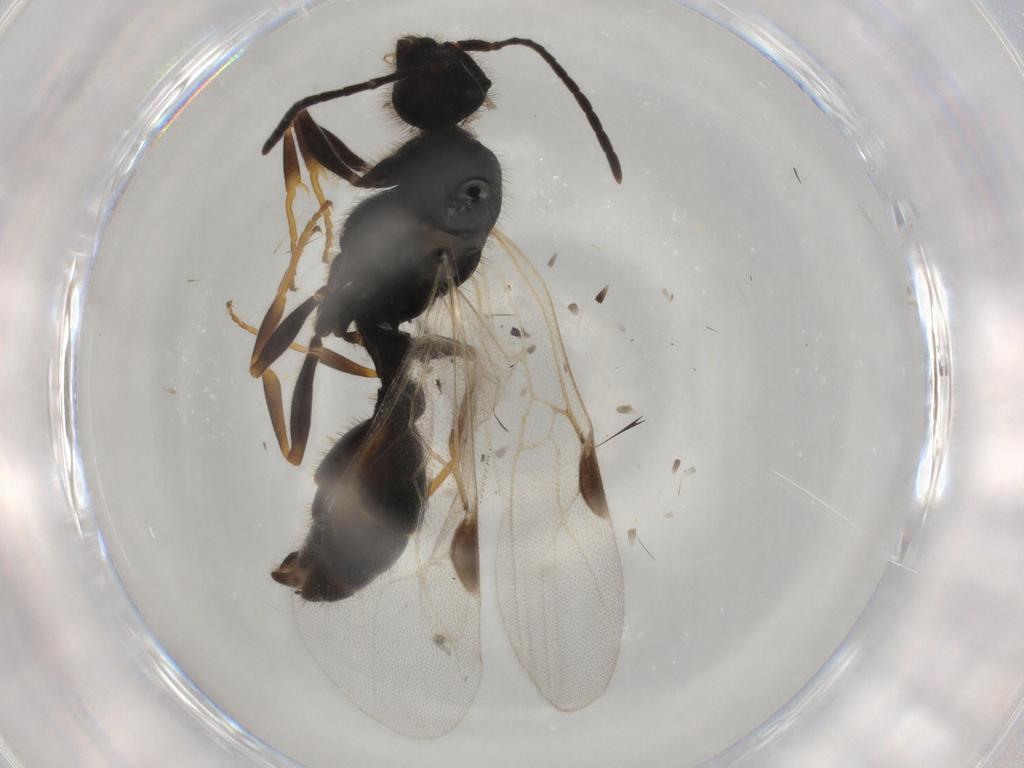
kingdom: Animalia
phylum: Arthropoda
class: Insecta
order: Hymenoptera
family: Formicidae
